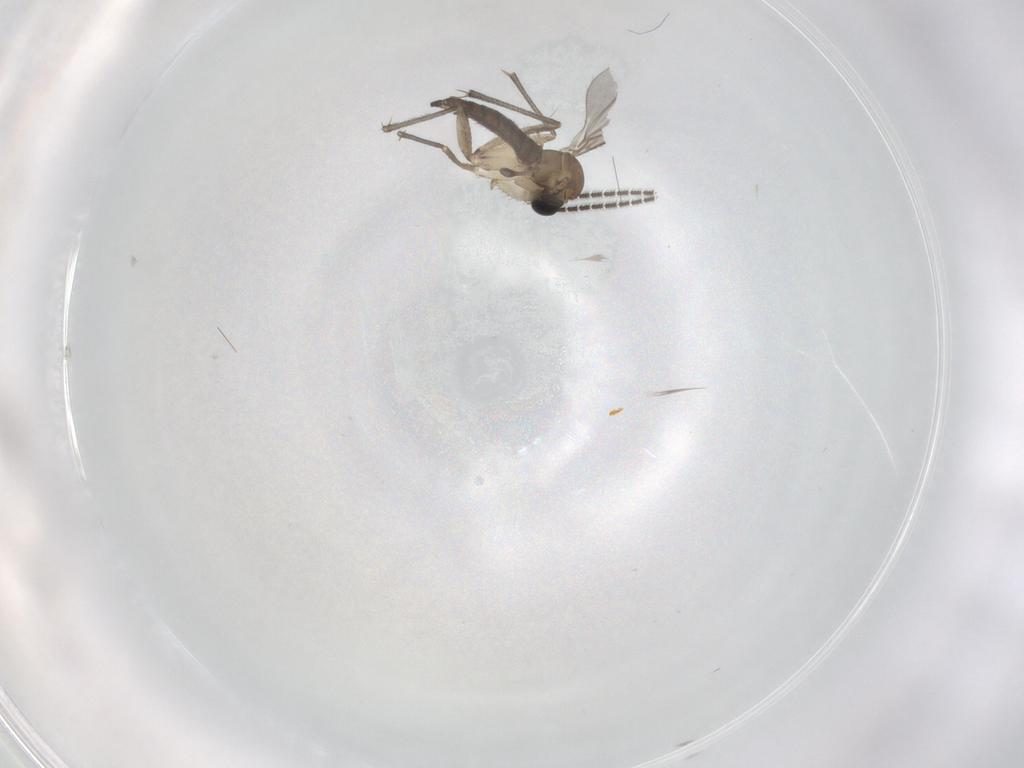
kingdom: Animalia
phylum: Arthropoda
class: Insecta
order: Diptera
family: Sciaridae
